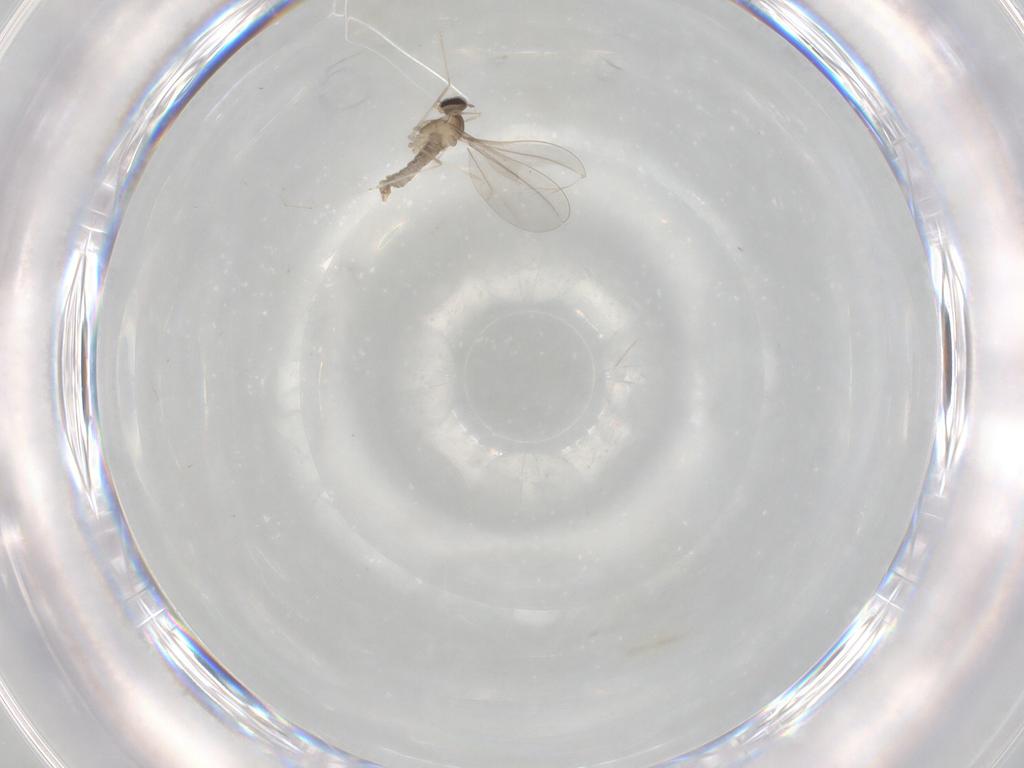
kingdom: Animalia
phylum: Arthropoda
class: Insecta
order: Diptera
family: Cecidomyiidae
